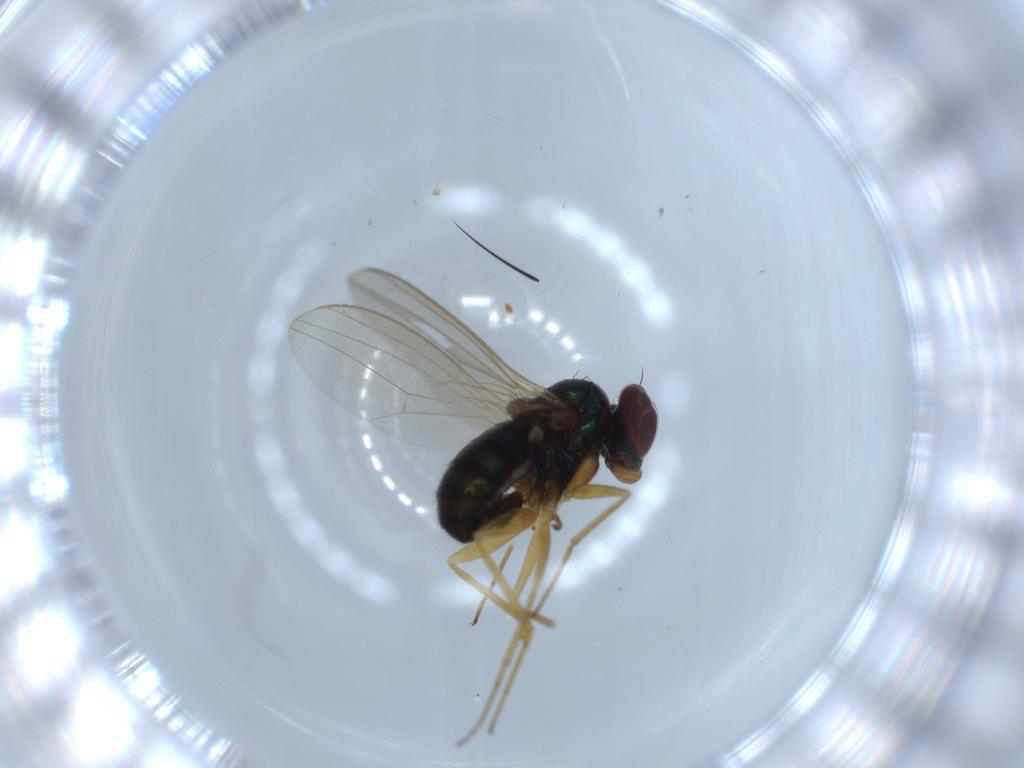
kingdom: Animalia
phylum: Arthropoda
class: Insecta
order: Diptera
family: Dolichopodidae
